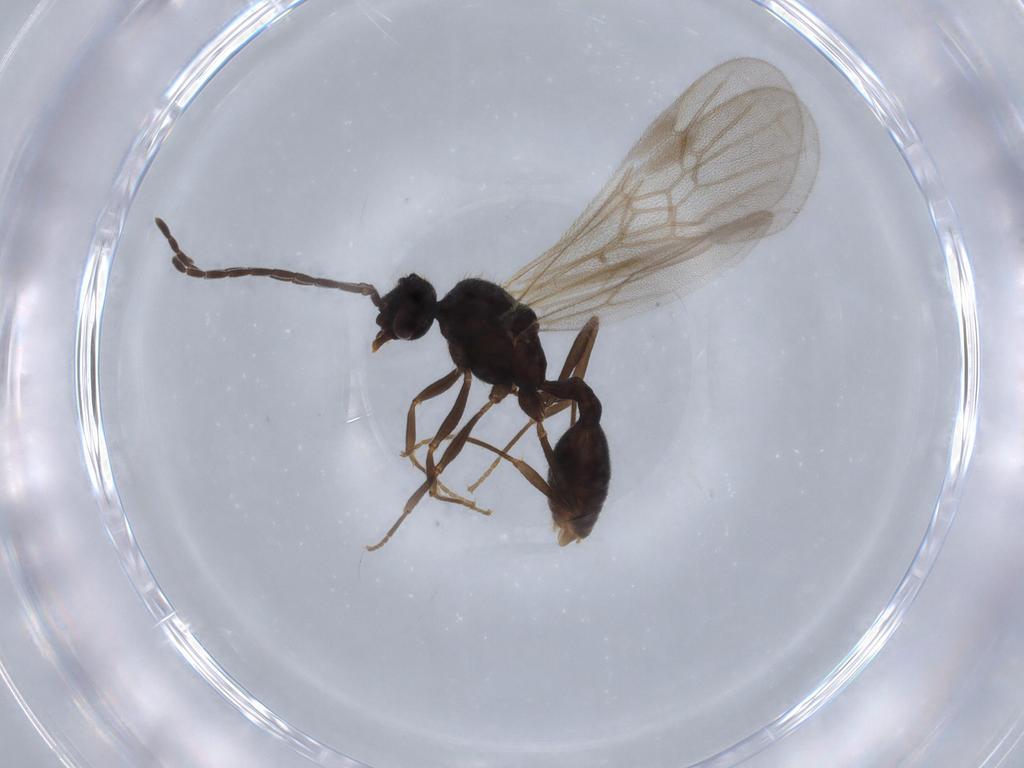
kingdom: Animalia
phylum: Arthropoda
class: Insecta
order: Hymenoptera
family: Formicidae
